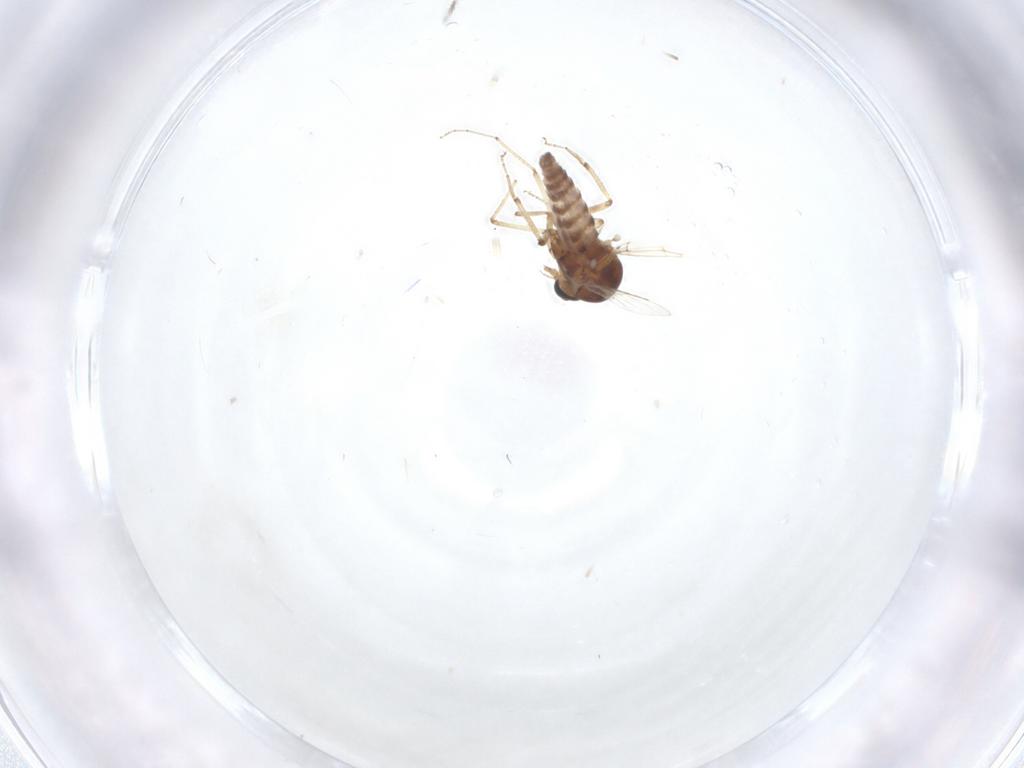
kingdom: Animalia
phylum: Arthropoda
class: Insecta
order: Diptera
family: Ceratopogonidae
